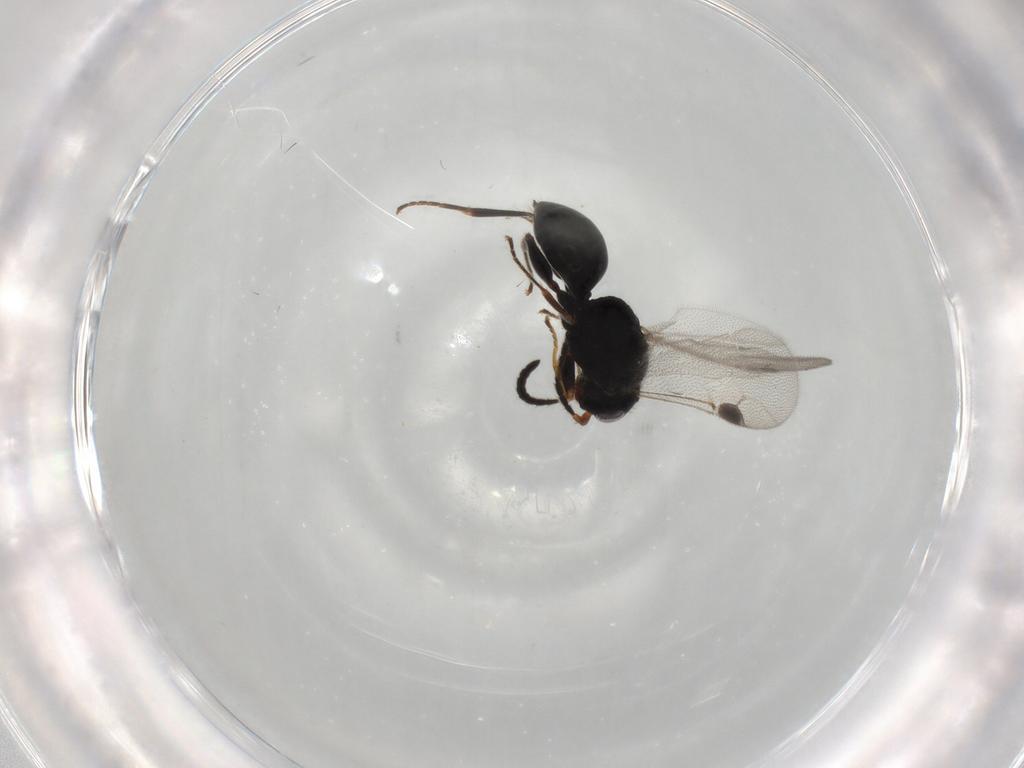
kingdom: Animalia
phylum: Arthropoda
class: Insecta
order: Hymenoptera
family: Dryinidae
